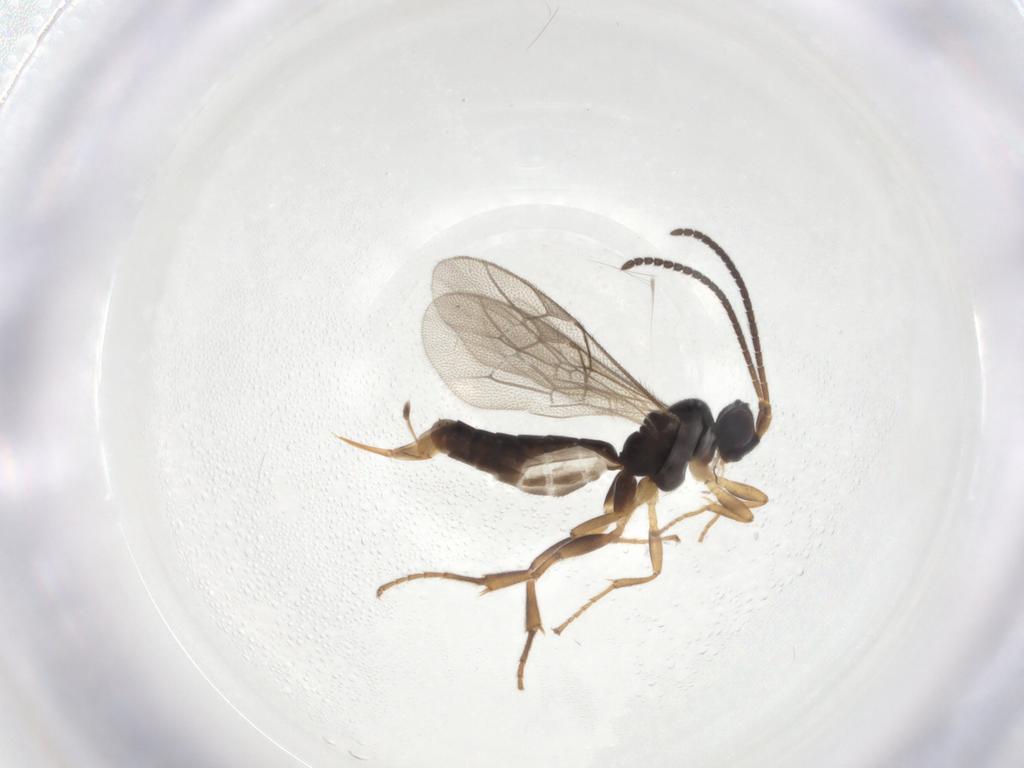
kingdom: Animalia
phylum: Arthropoda
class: Insecta
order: Hymenoptera
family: Ichneumonidae
